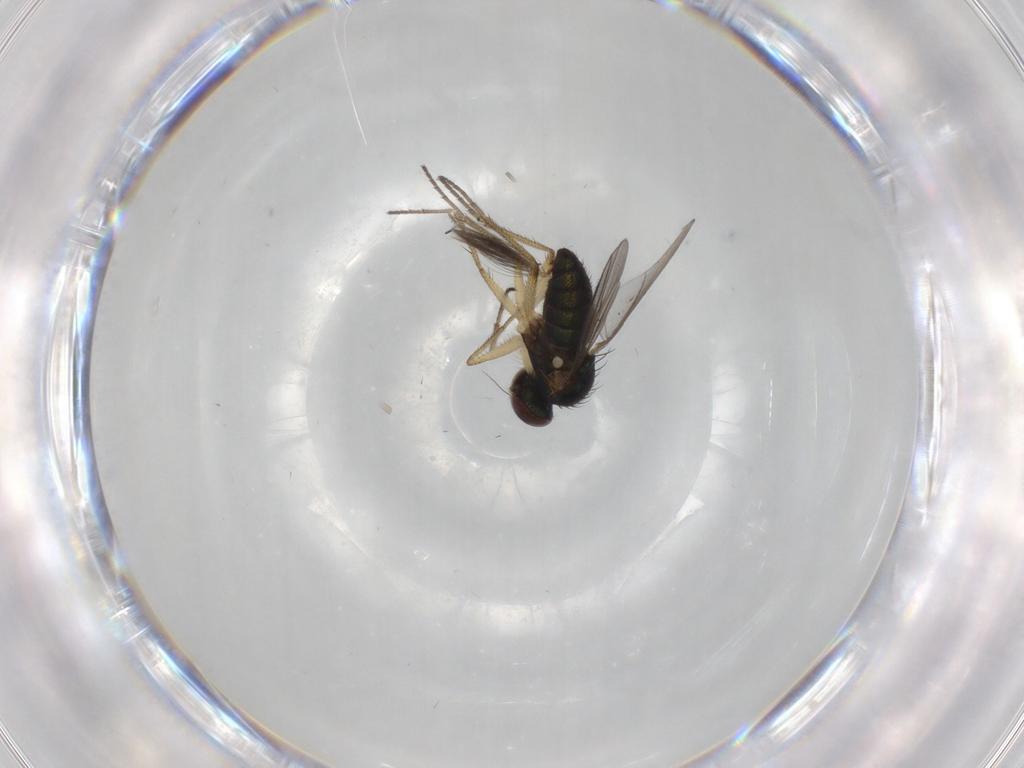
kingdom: Animalia
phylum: Arthropoda
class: Insecta
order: Diptera
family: Ceratopogonidae
